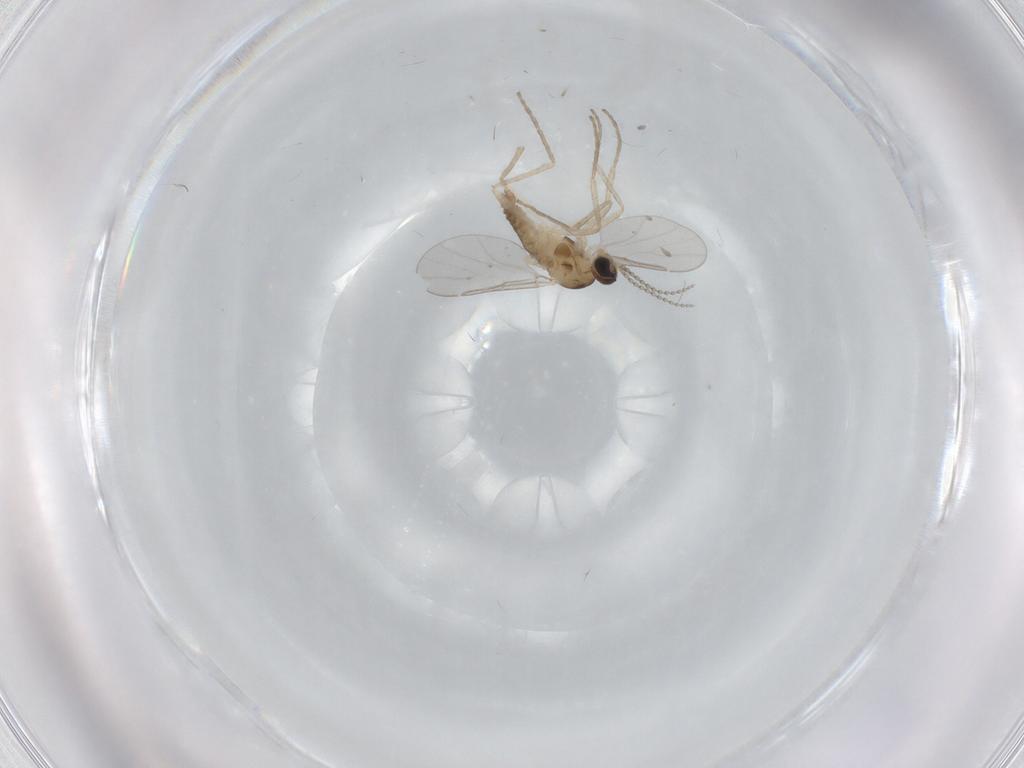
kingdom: Animalia
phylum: Arthropoda
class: Insecta
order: Diptera
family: Cecidomyiidae
